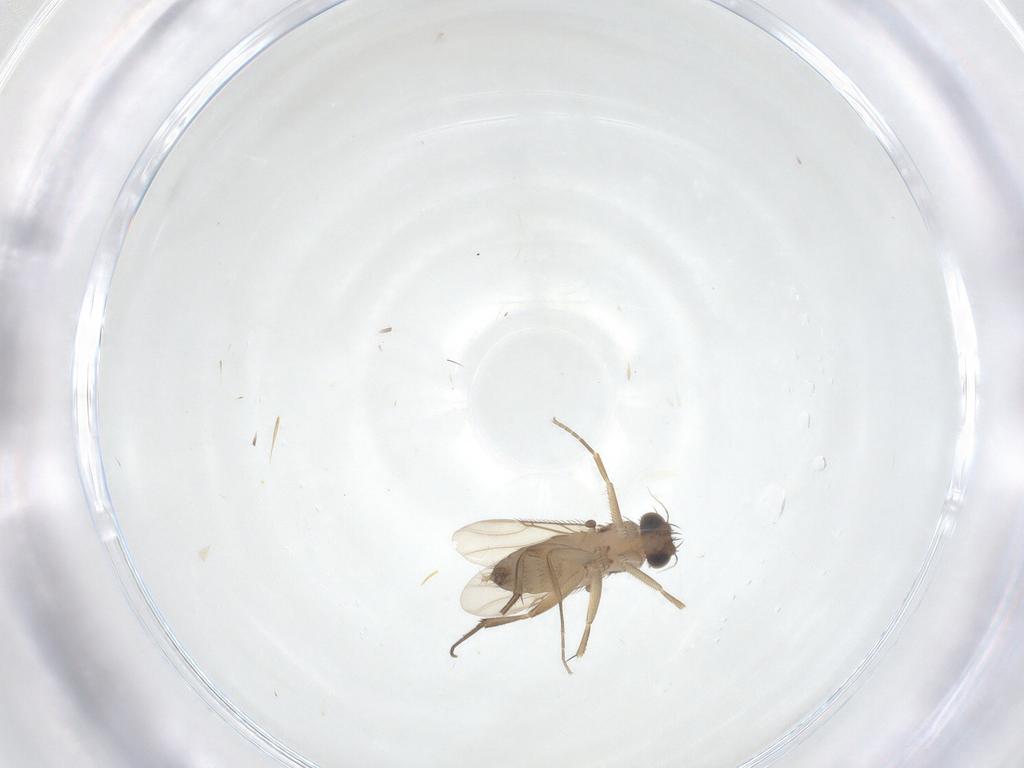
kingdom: Animalia
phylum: Arthropoda
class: Insecta
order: Diptera
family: Phoridae
